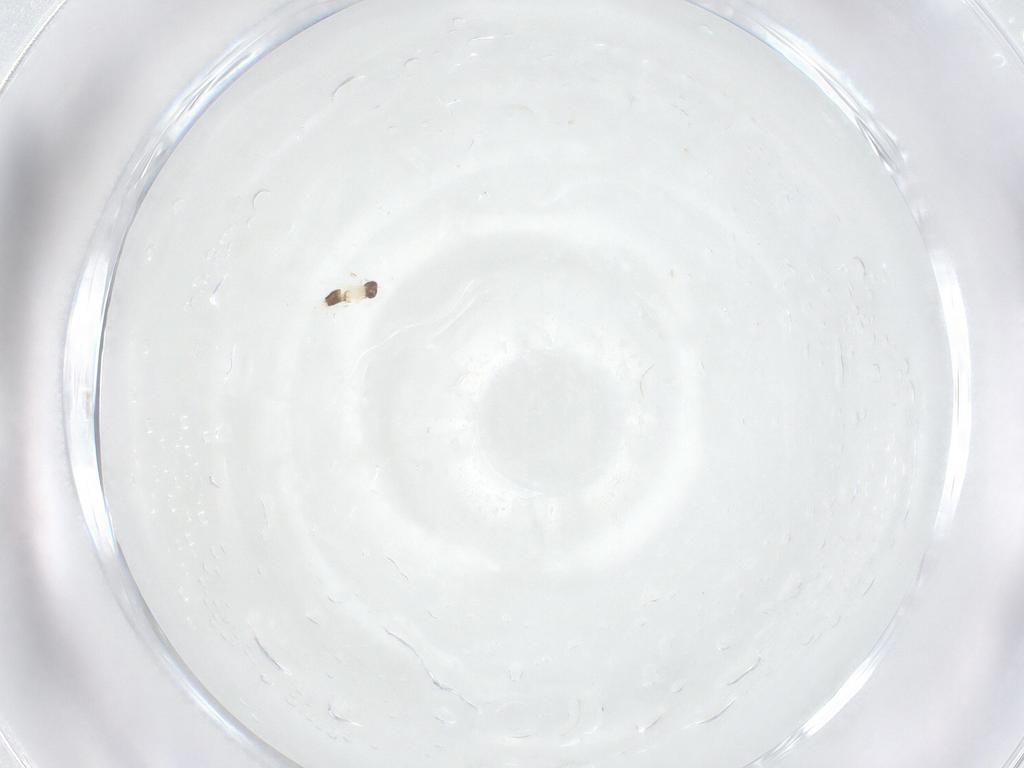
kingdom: Animalia
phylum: Arthropoda
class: Insecta
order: Hymenoptera
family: Mymaridae
